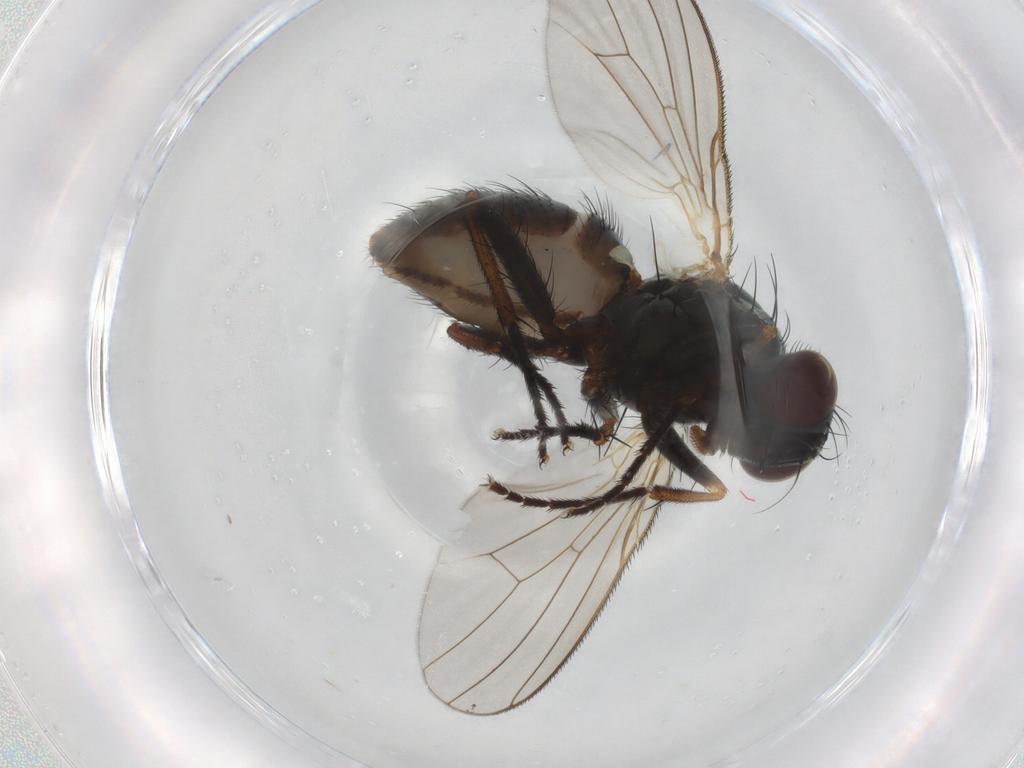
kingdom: Animalia
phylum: Arthropoda
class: Insecta
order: Diptera
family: Muscidae
